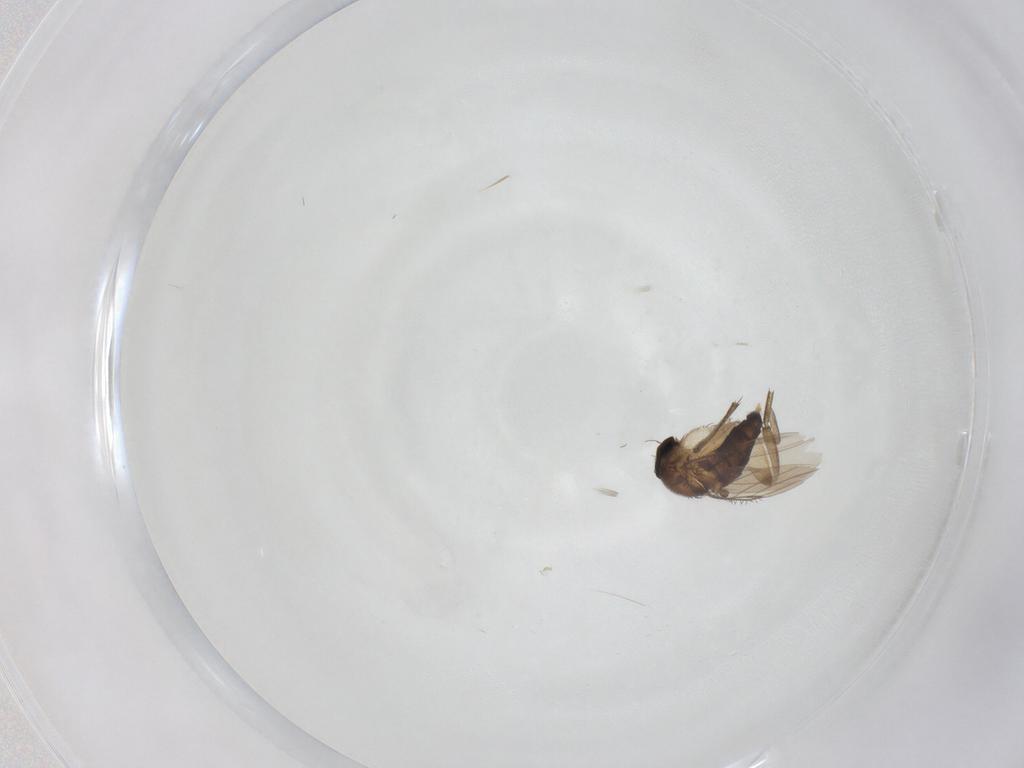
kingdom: Animalia
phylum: Arthropoda
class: Insecta
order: Diptera
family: Phoridae
